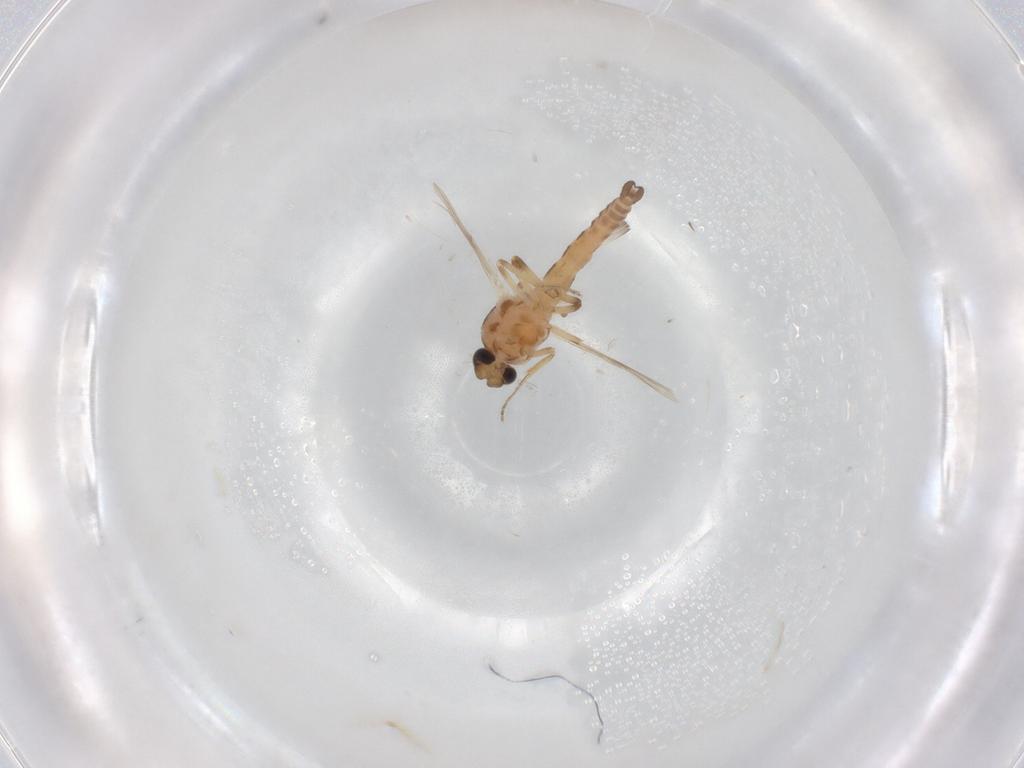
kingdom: Animalia
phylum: Arthropoda
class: Insecta
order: Diptera
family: Ceratopogonidae
